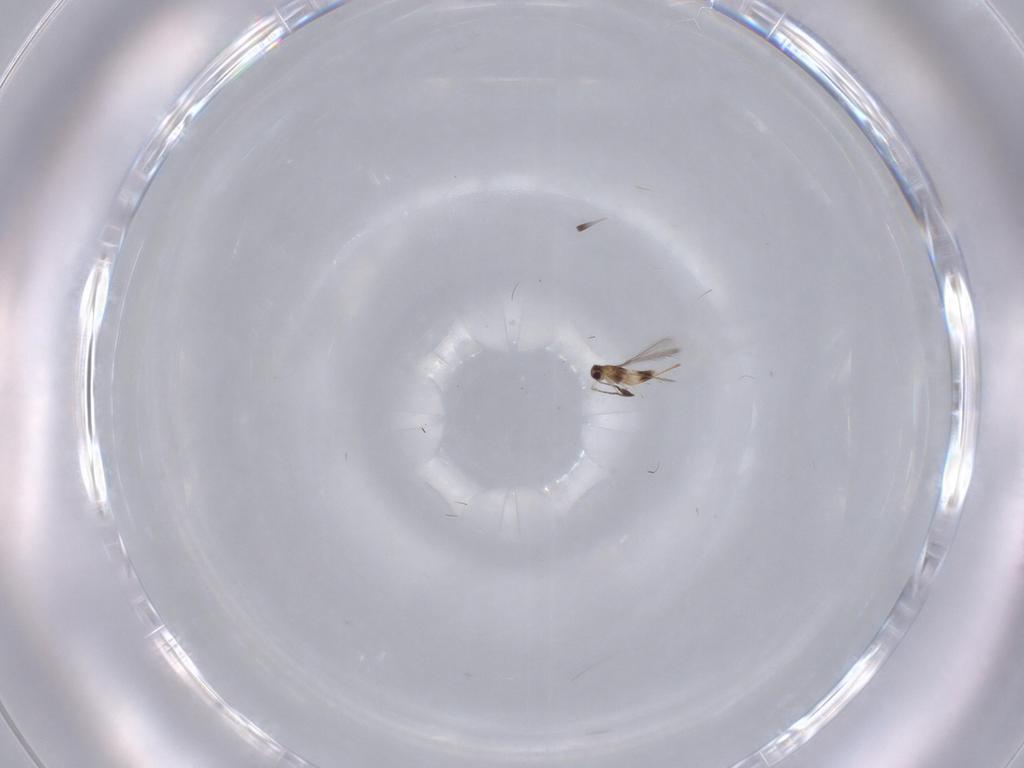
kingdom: Animalia
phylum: Arthropoda
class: Insecta
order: Hymenoptera
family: Mymaridae
